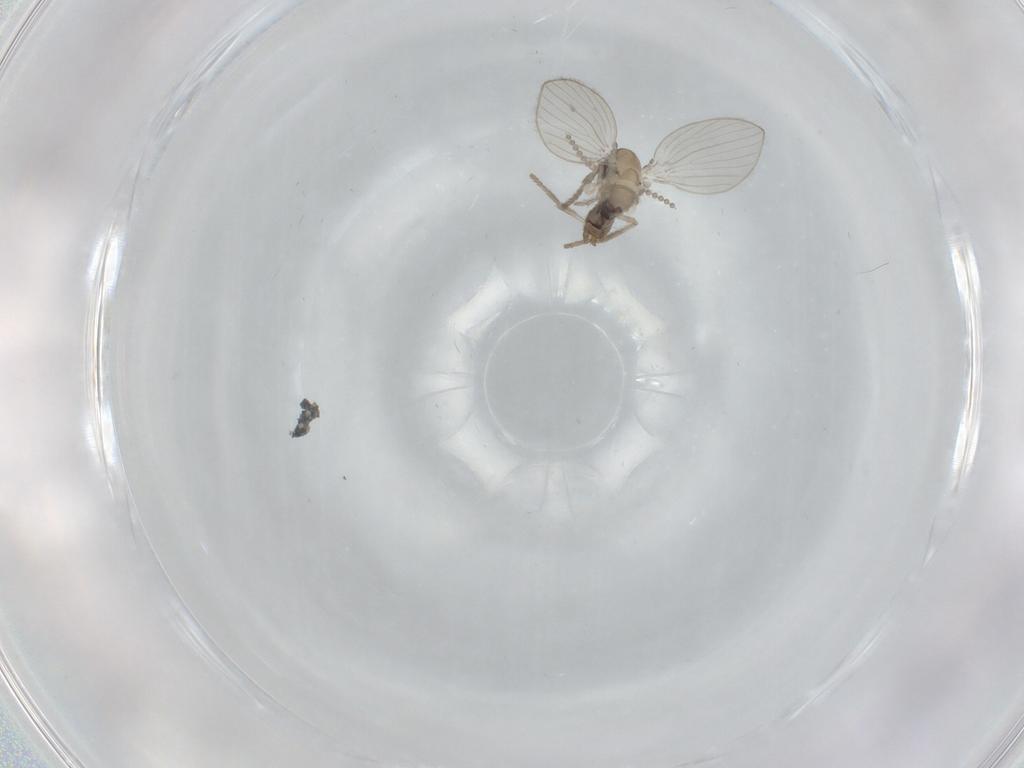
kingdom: Animalia
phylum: Arthropoda
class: Insecta
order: Diptera
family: Psychodidae
